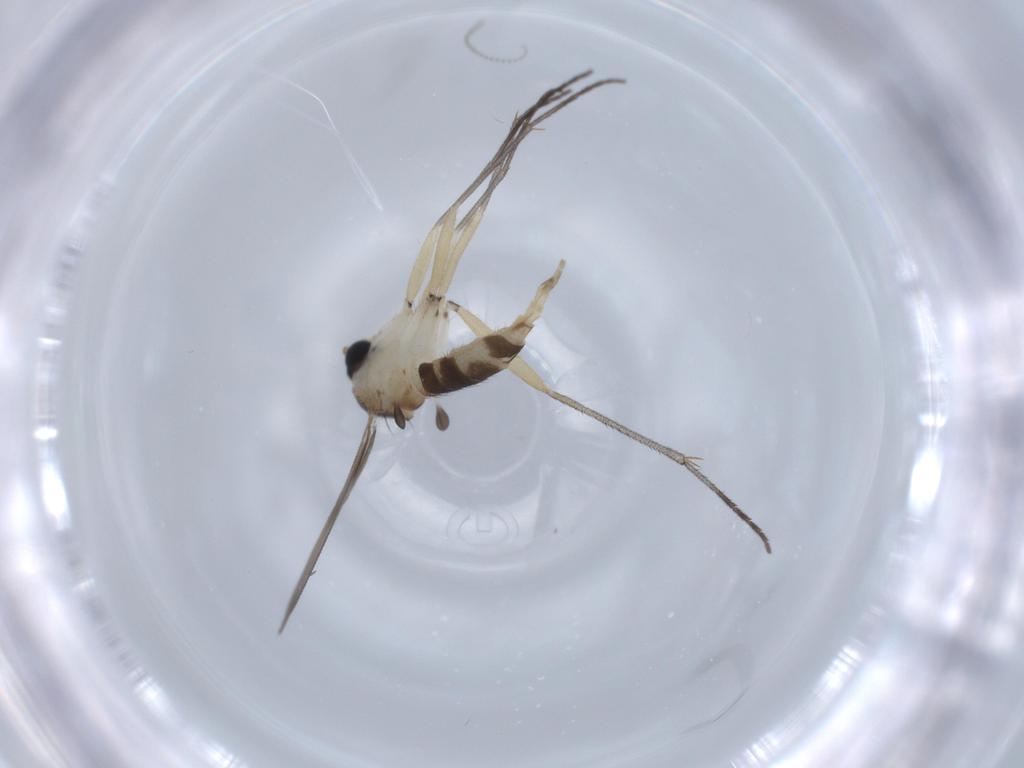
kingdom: Animalia
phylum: Arthropoda
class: Insecta
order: Diptera
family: Sciaridae
